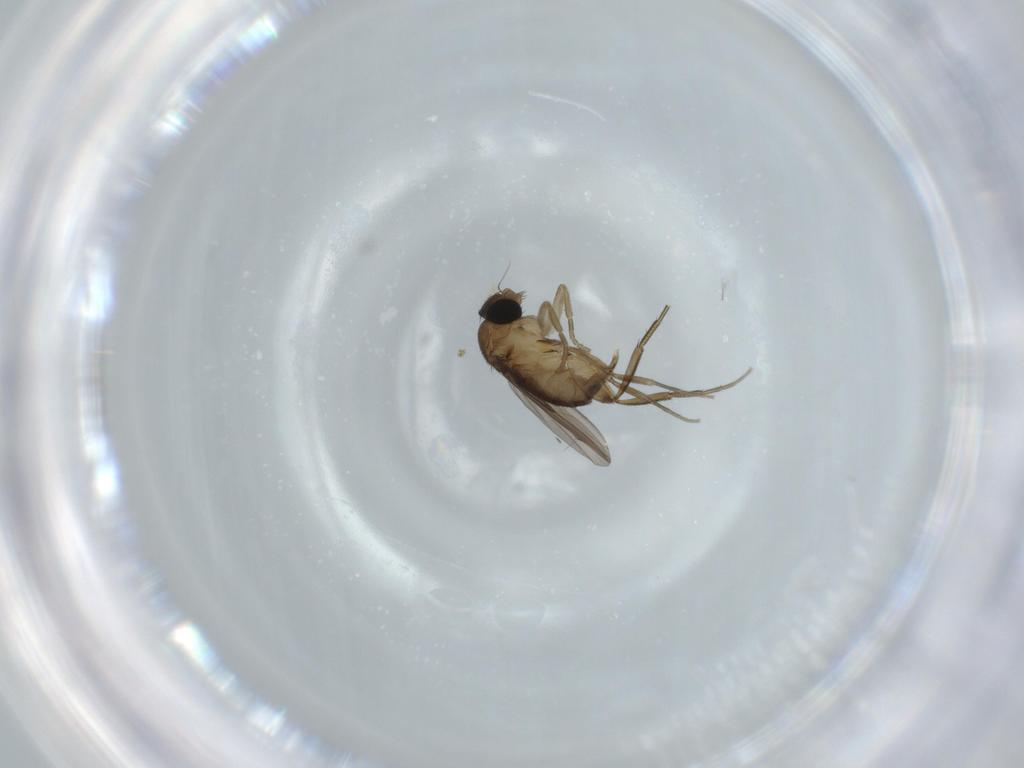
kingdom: Animalia
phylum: Arthropoda
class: Insecta
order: Diptera
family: Phoridae
